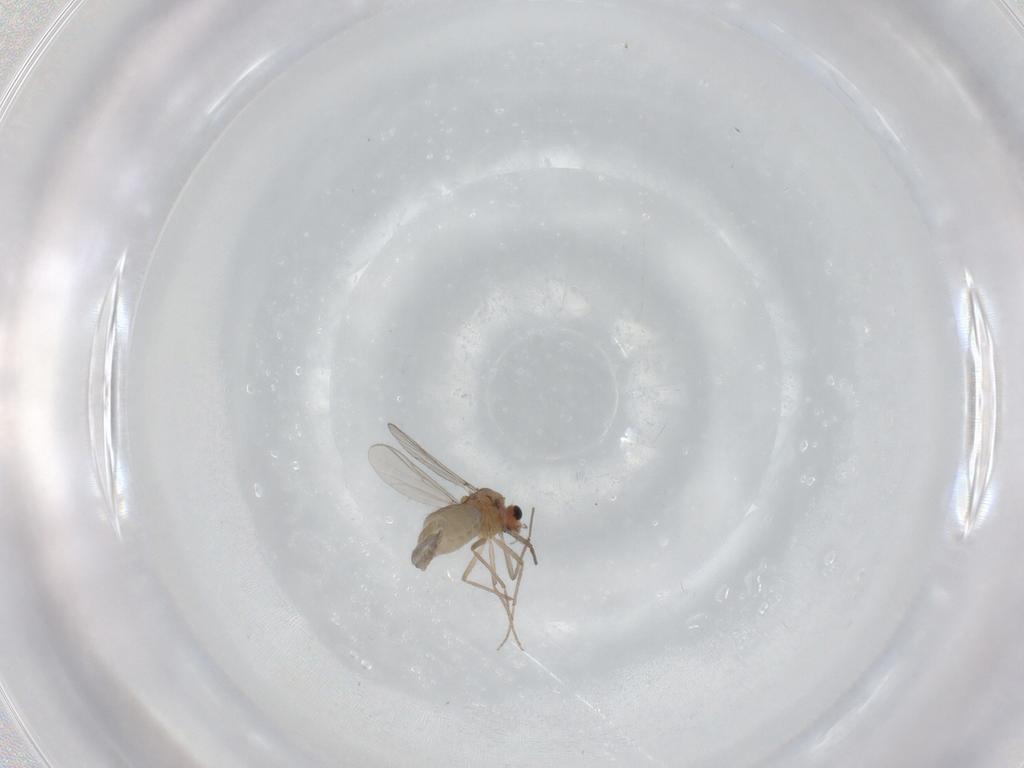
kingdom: Animalia
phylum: Arthropoda
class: Insecta
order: Diptera
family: Chironomidae
